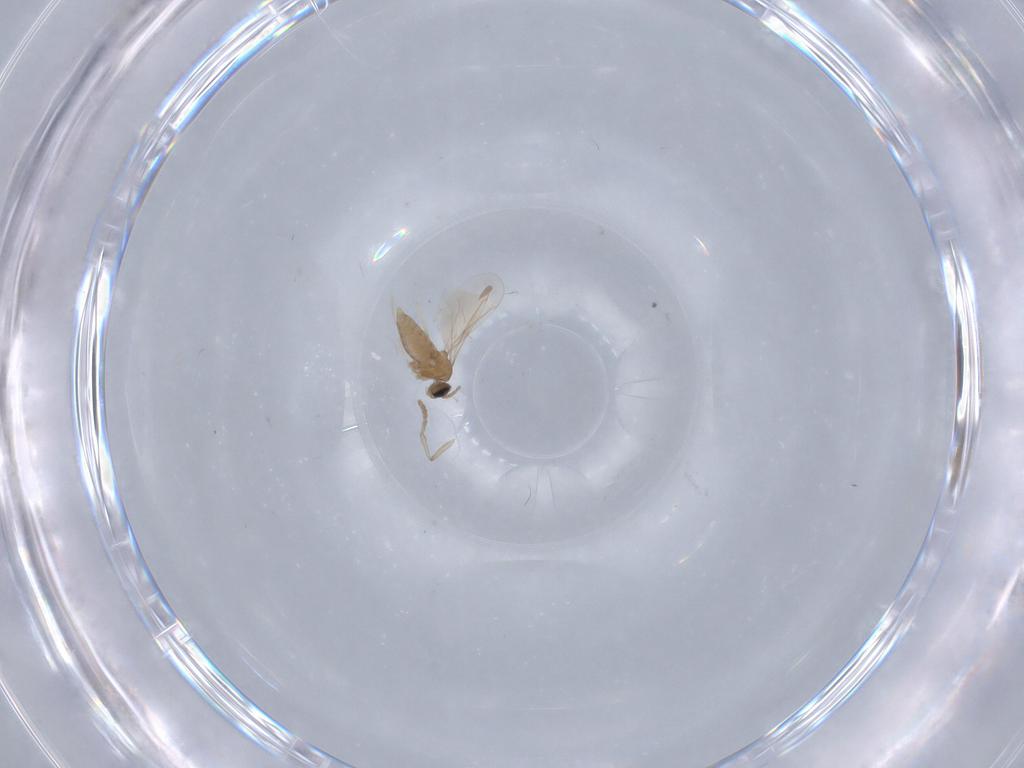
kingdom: Animalia
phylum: Arthropoda
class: Insecta
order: Diptera
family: Cecidomyiidae
